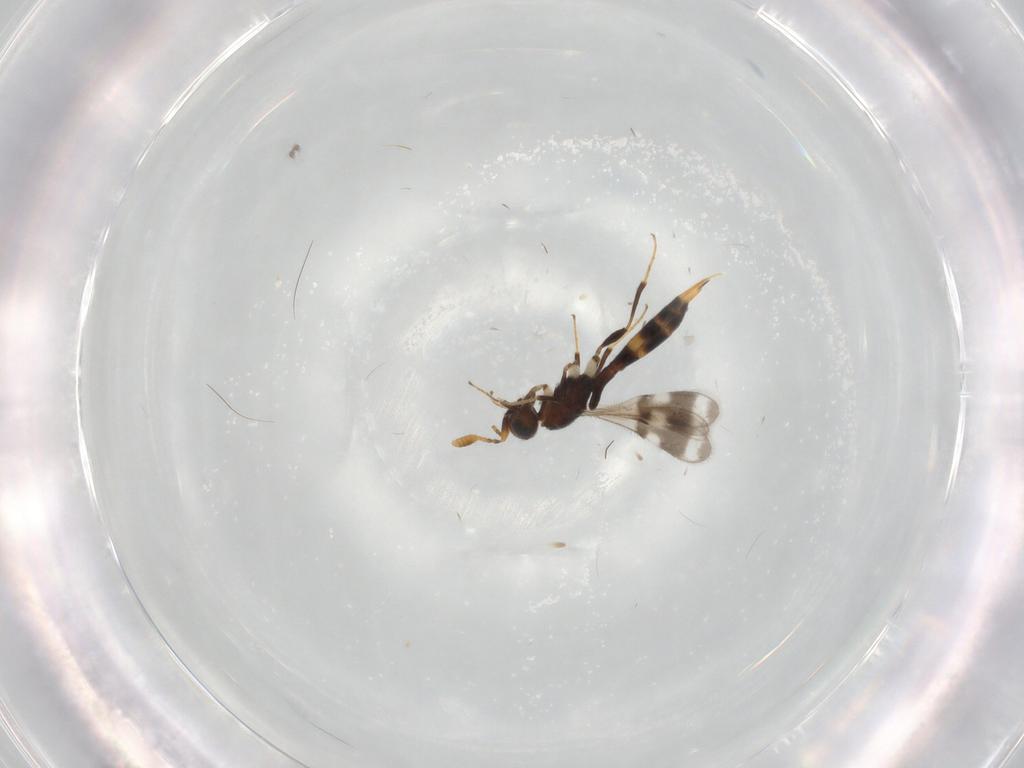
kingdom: Animalia
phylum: Arthropoda
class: Insecta
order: Hymenoptera
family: Scelionidae
